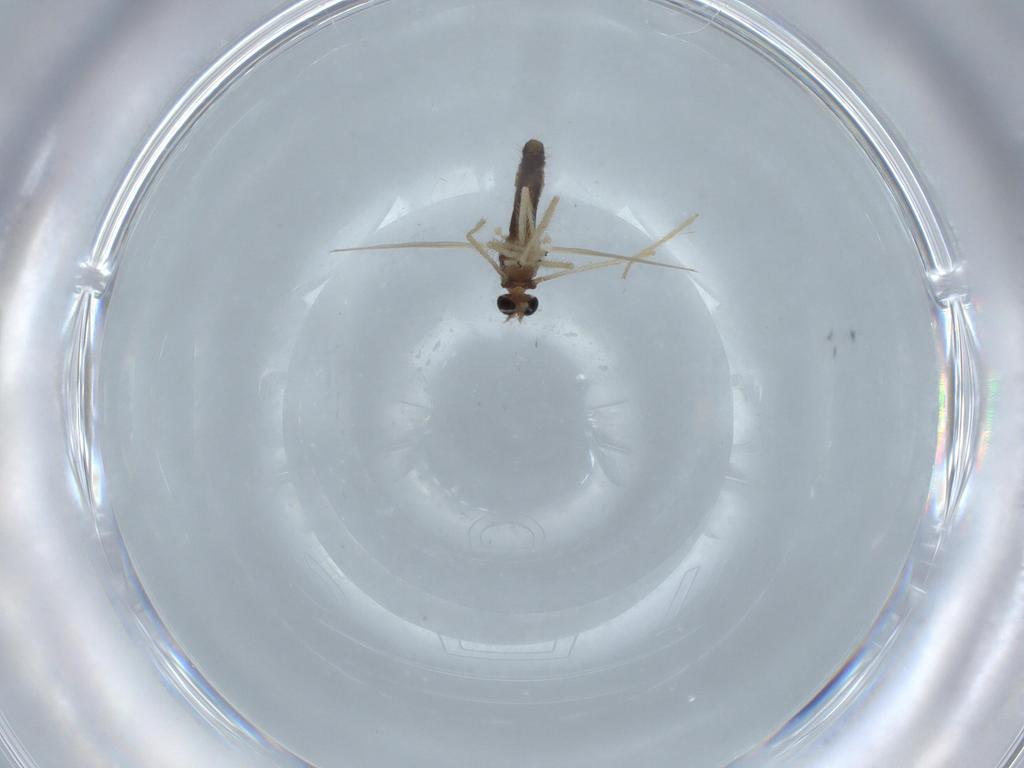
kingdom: Animalia
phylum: Arthropoda
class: Insecta
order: Diptera
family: Chironomidae
